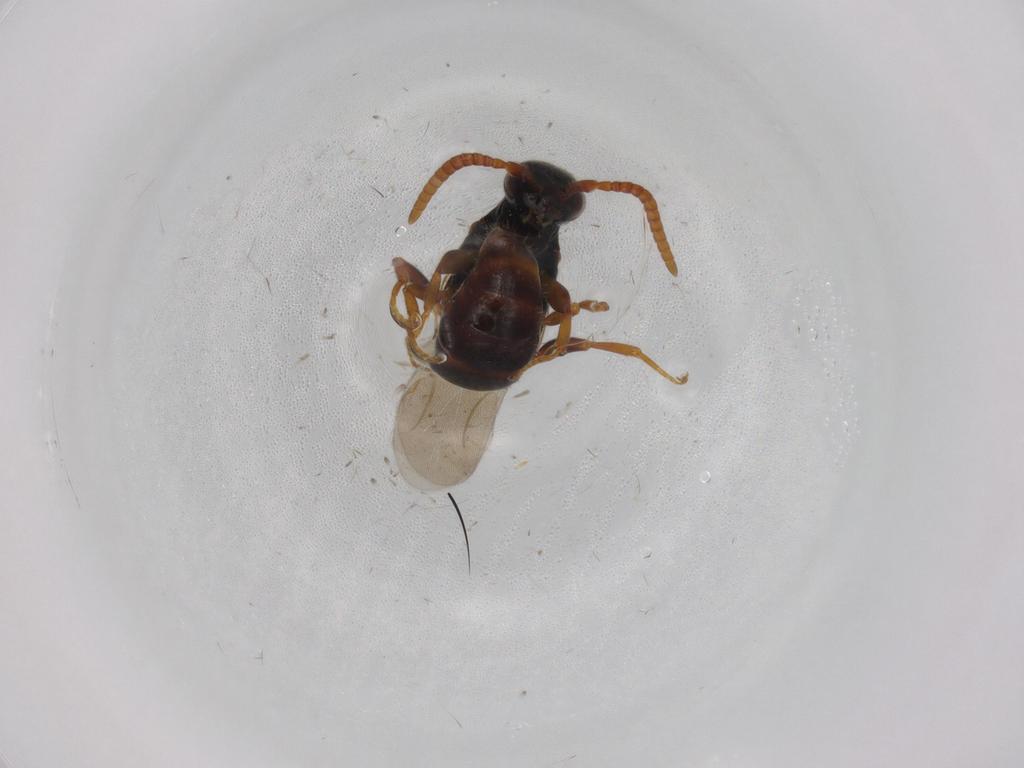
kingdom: Animalia
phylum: Arthropoda
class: Insecta
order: Hymenoptera
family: Bethylidae
